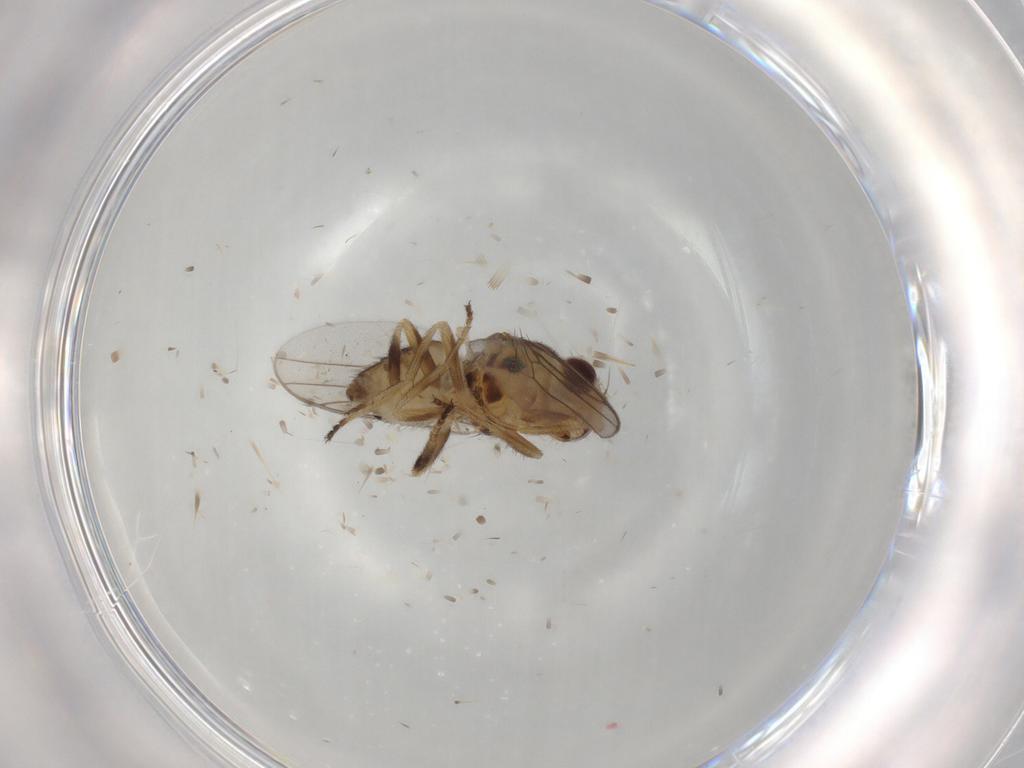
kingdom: Animalia
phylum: Arthropoda
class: Insecta
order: Diptera
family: Chloropidae
